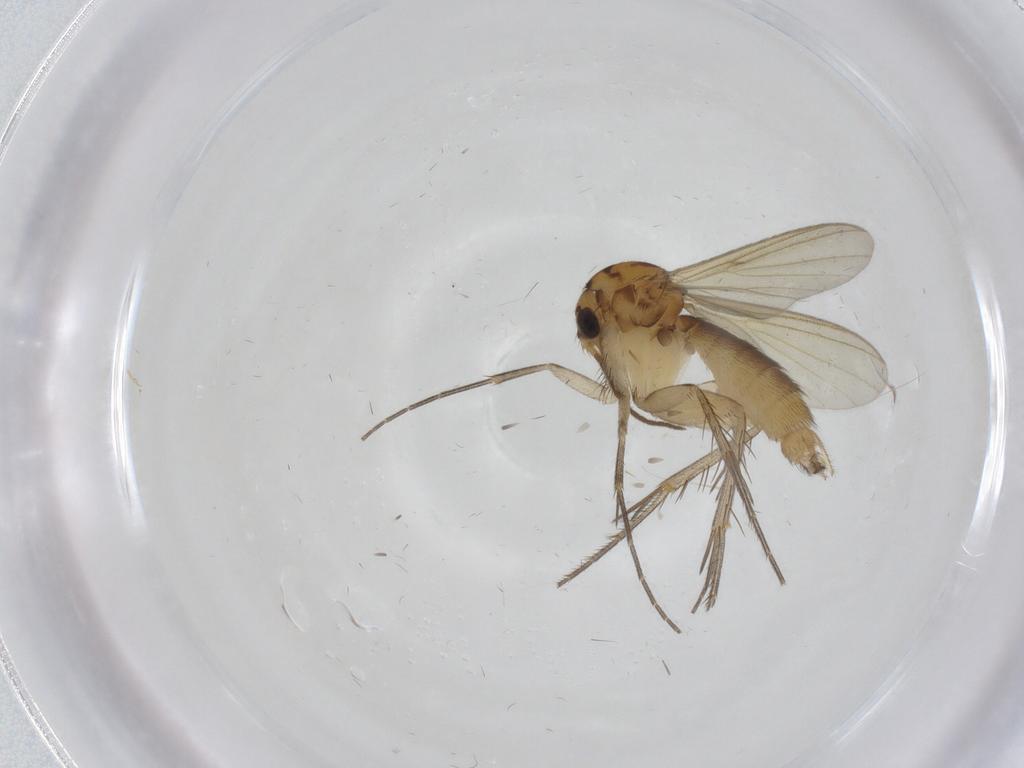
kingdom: Animalia
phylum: Arthropoda
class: Insecta
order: Diptera
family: Mycetophilidae
